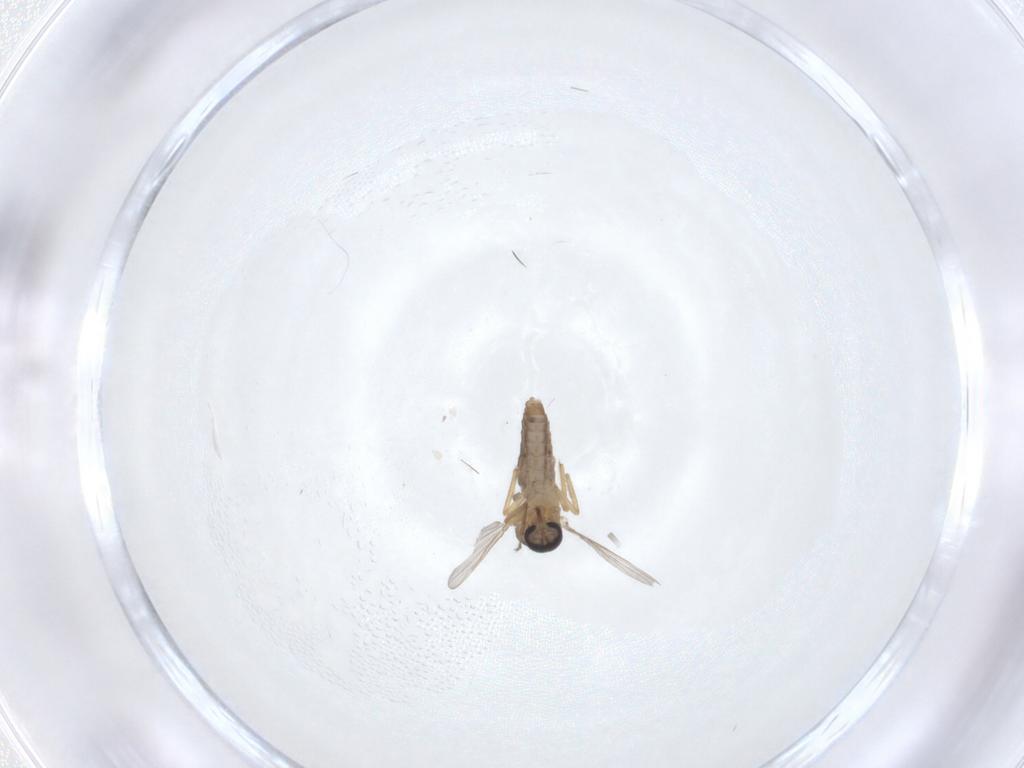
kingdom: Animalia
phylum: Arthropoda
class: Insecta
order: Diptera
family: Ceratopogonidae
